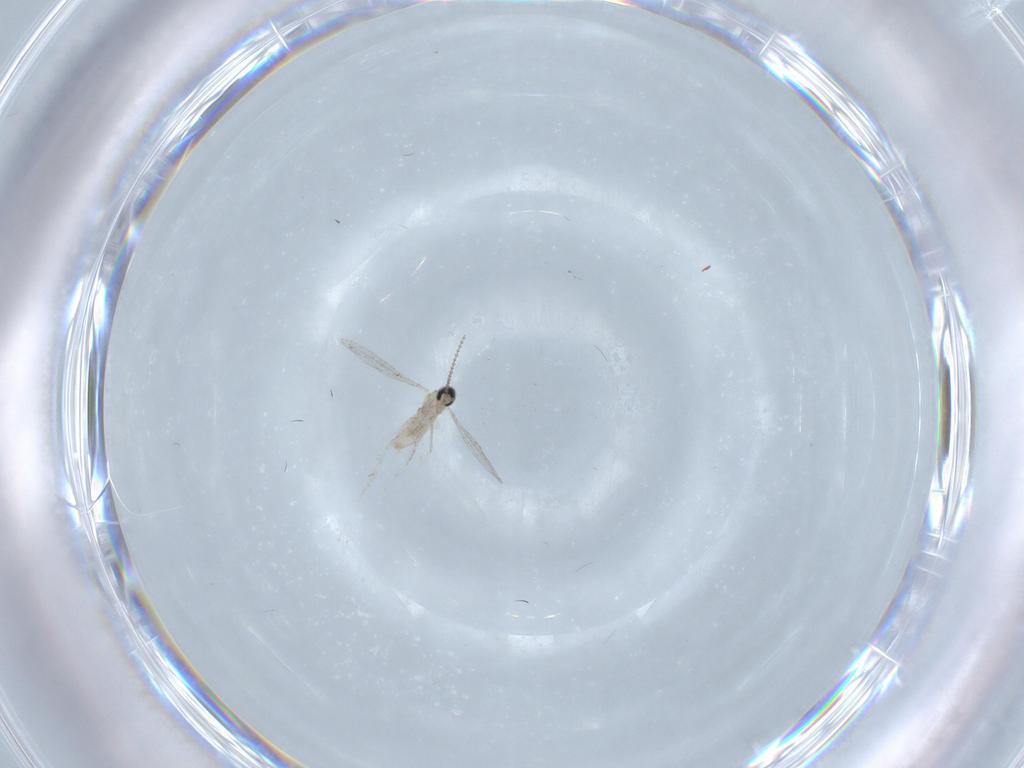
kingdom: Animalia
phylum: Arthropoda
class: Insecta
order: Diptera
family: Cecidomyiidae
